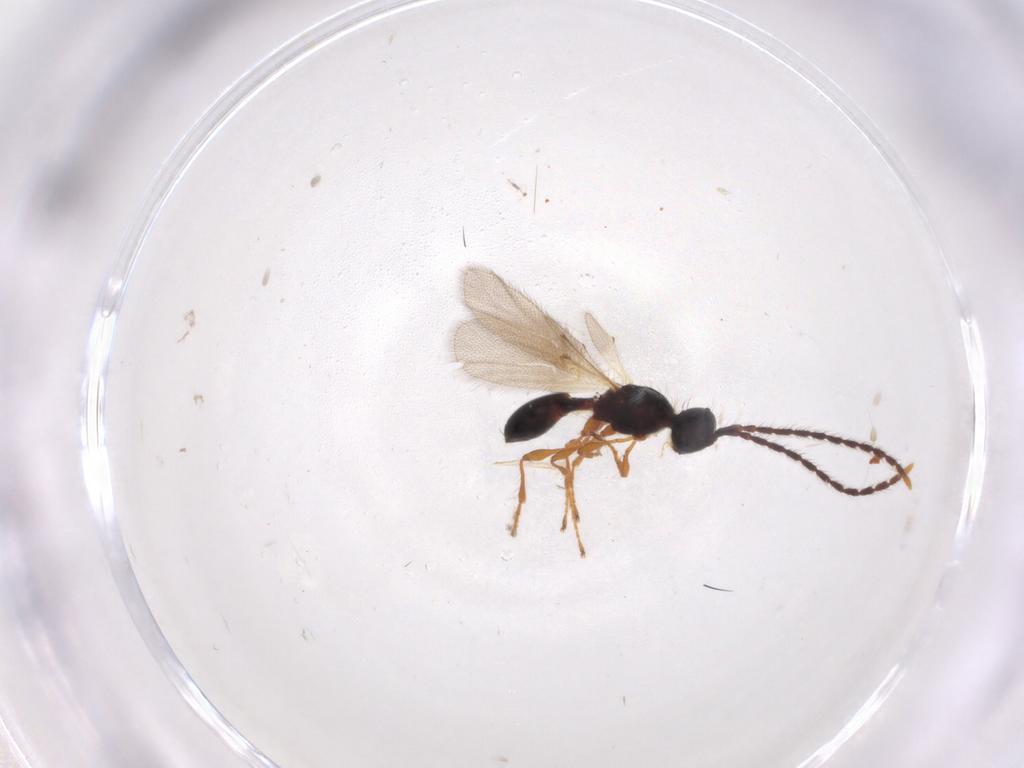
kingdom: Animalia
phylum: Arthropoda
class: Insecta
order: Hymenoptera
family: Diapriidae
